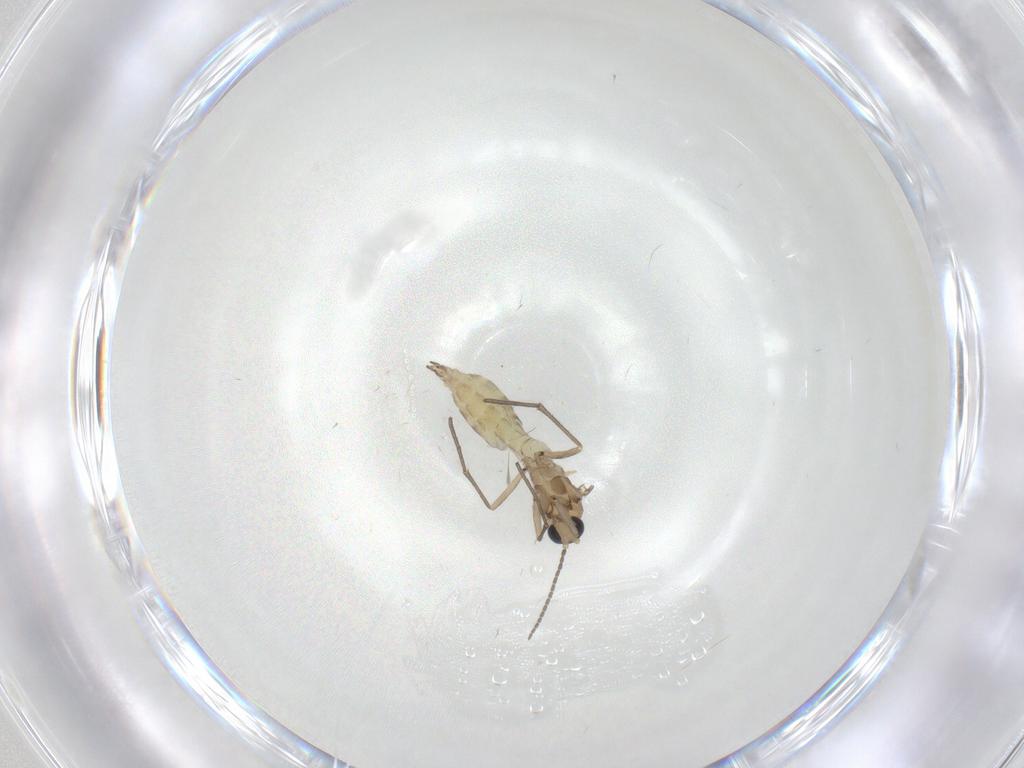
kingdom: Animalia
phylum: Arthropoda
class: Insecta
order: Diptera
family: Sciaridae
